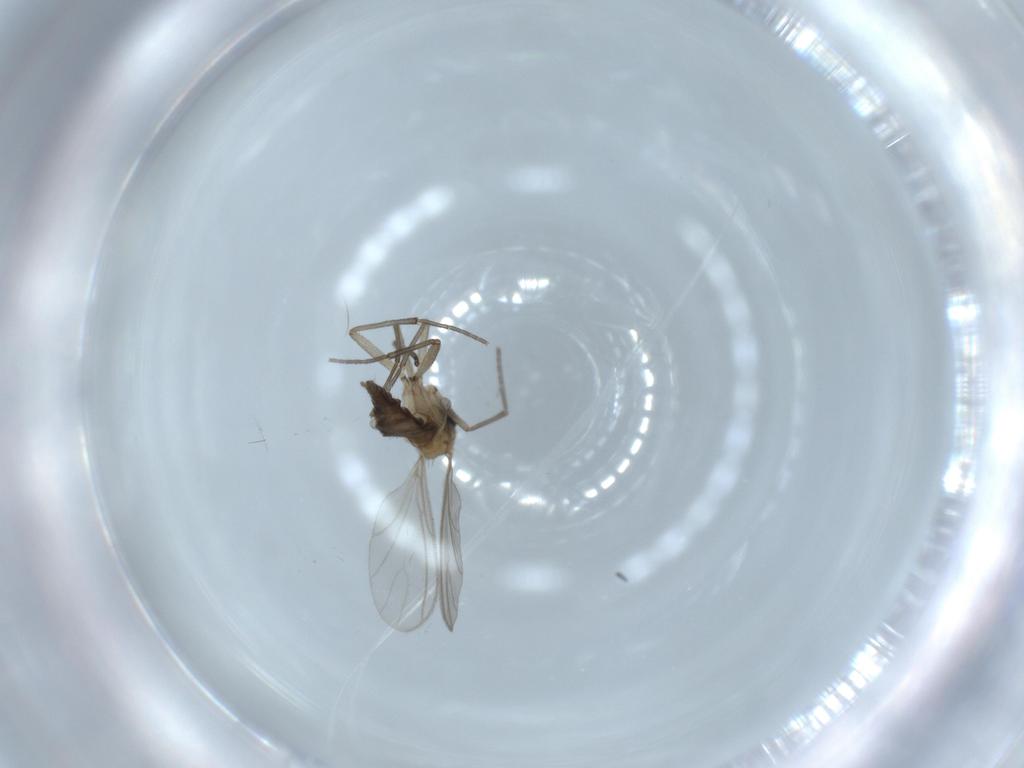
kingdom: Animalia
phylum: Arthropoda
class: Insecta
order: Diptera
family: Sciaridae
